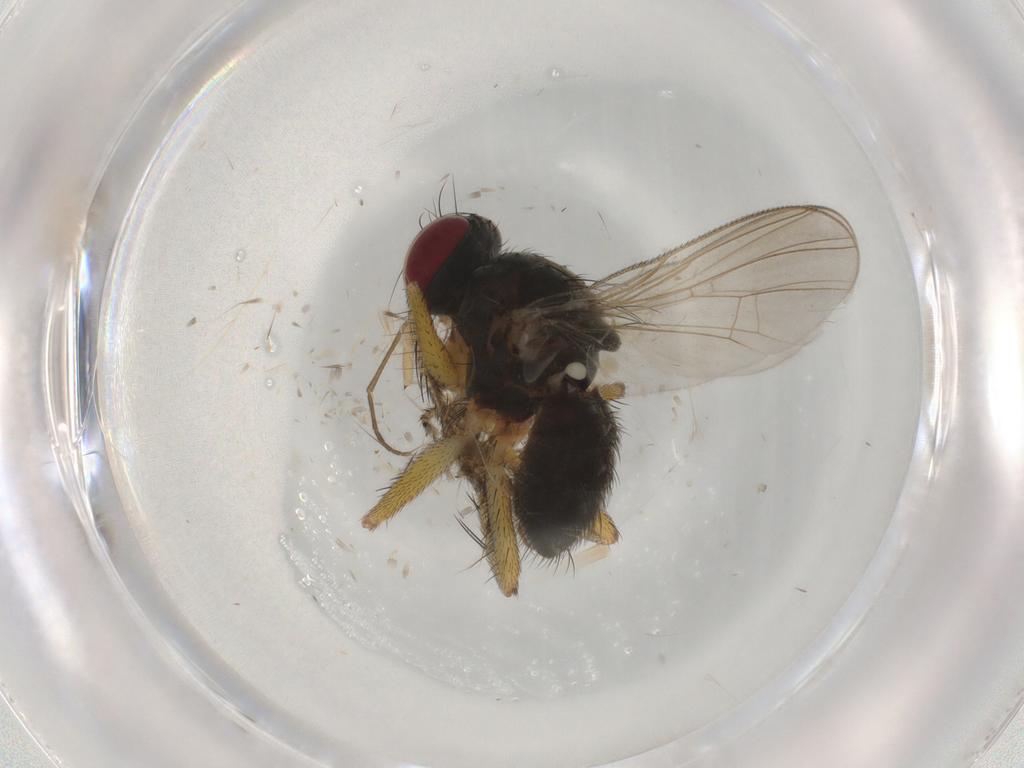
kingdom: Animalia
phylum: Arthropoda
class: Insecta
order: Diptera
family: Muscidae
